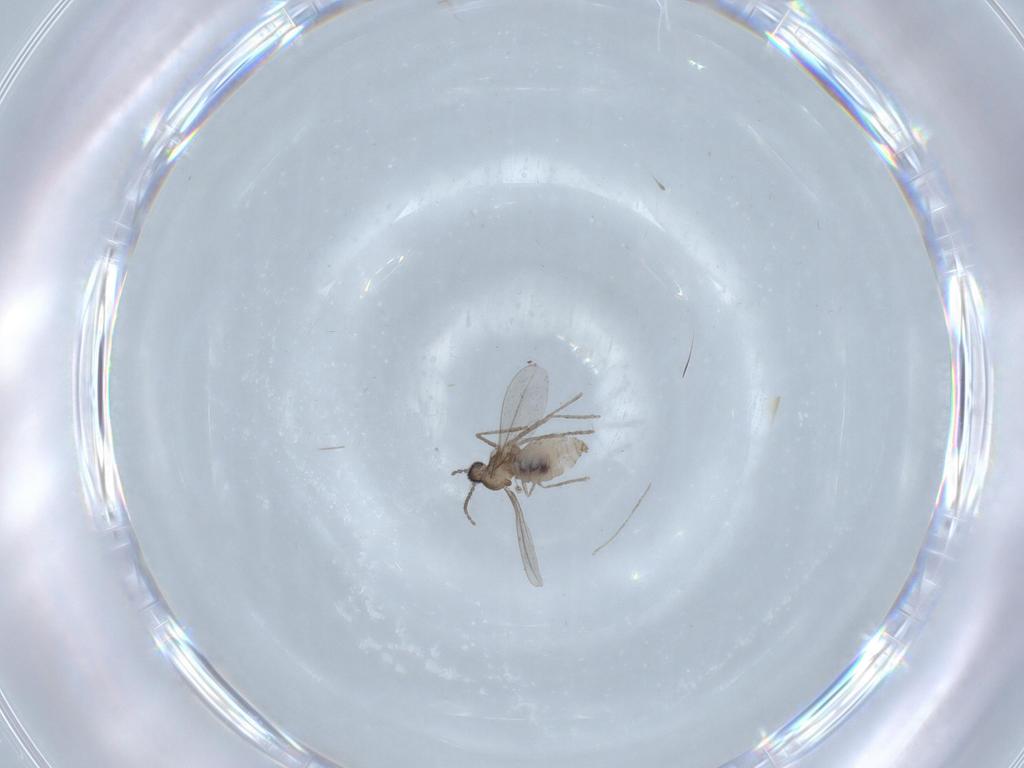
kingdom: Animalia
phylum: Arthropoda
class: Insecta
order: Diptera
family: Cecidomyiidae
